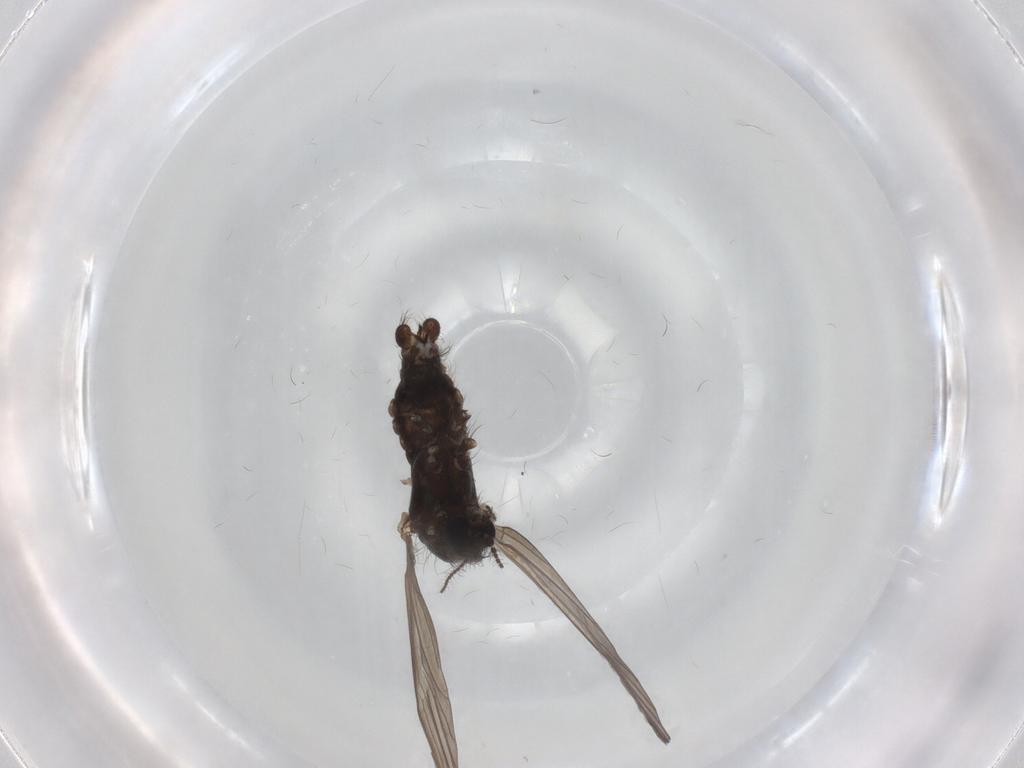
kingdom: Animalia
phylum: Arthropoda
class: Insecta
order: Diptera
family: Limoniidae
